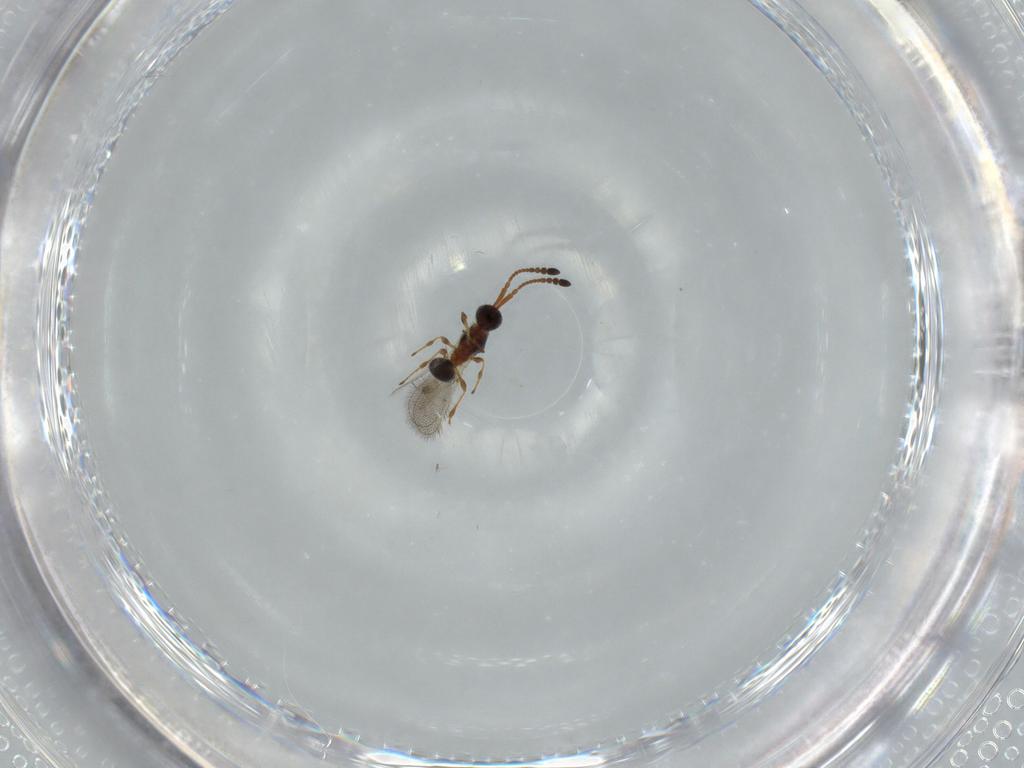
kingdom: Animalia
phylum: Arthropoda
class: Insecta
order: Hymenoptera
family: Diapriidae
